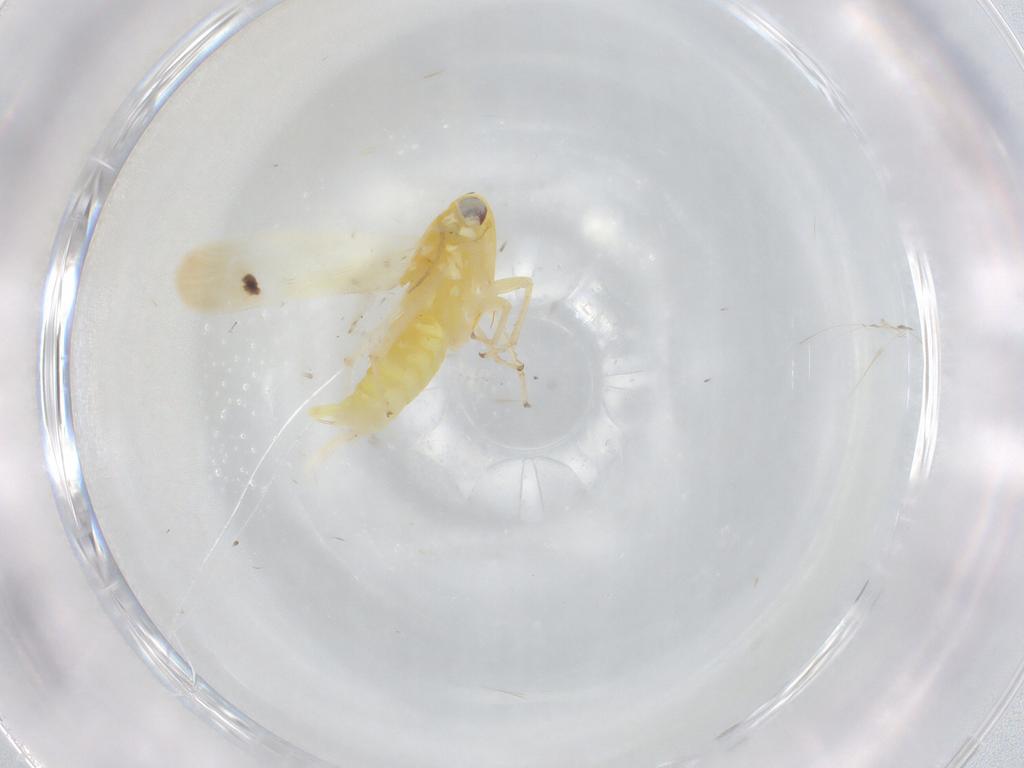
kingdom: Animalia
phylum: Arthropoda
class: Insecta
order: Hemiptera
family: Cicadellidae
